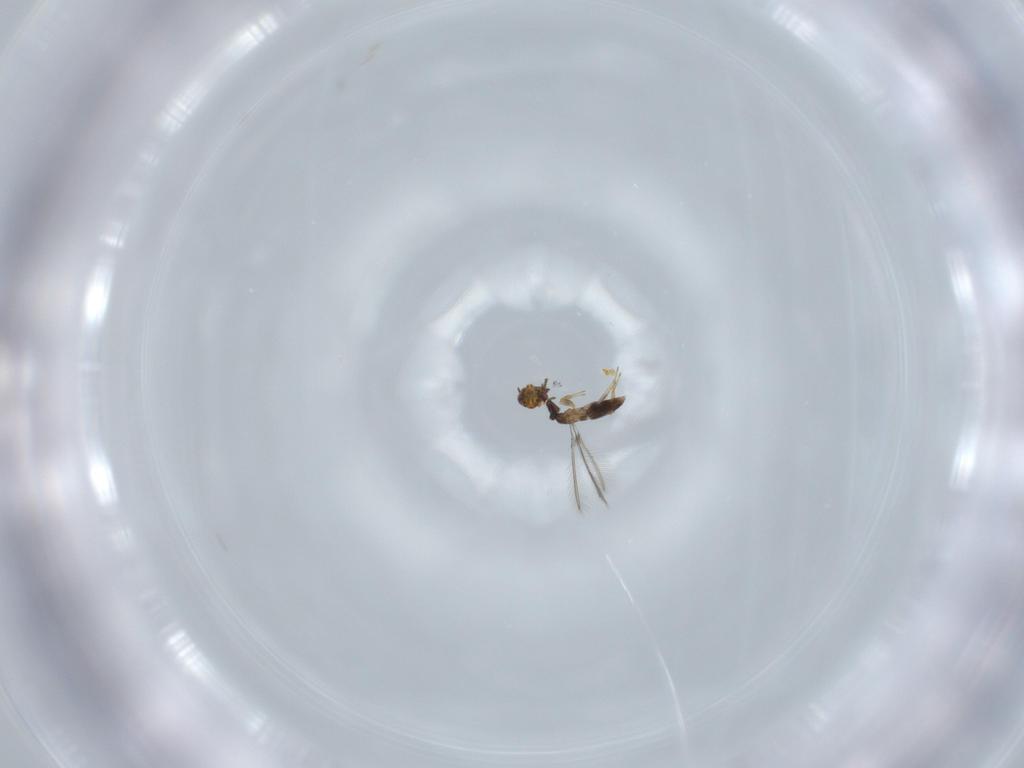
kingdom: Animalia
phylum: Arthropoda
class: Insecta
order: Hymenoptera
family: Trichogrammatidae
